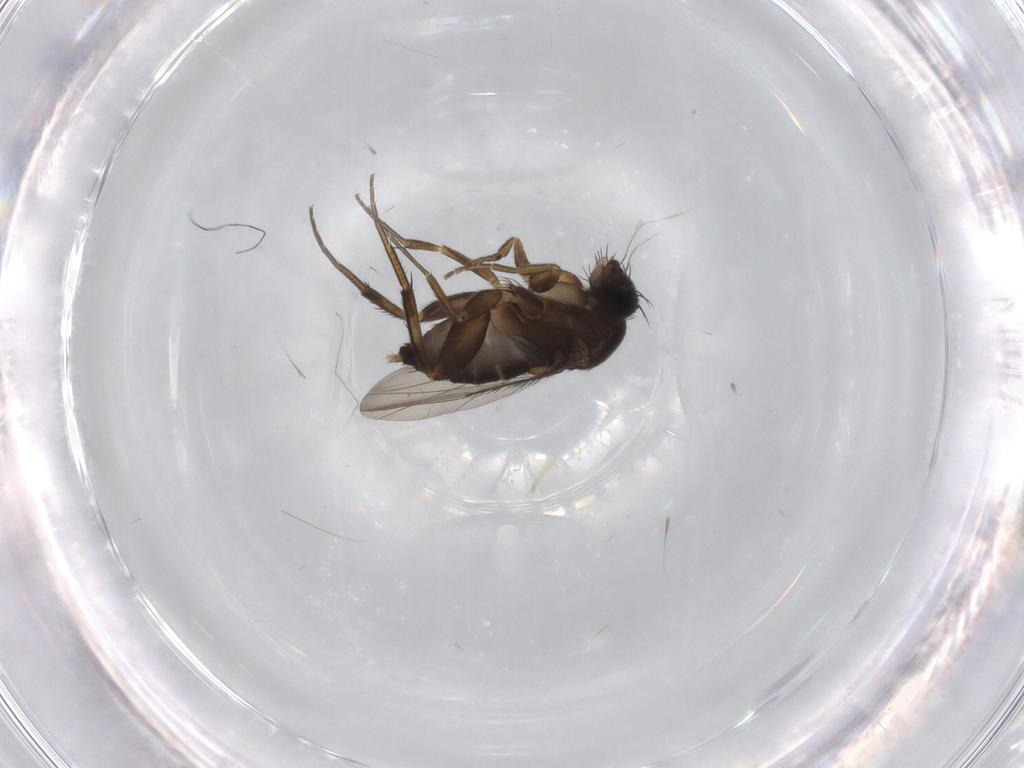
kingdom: Animalia
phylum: Arthropoda
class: Insecta
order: Diptera
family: Phoridae
